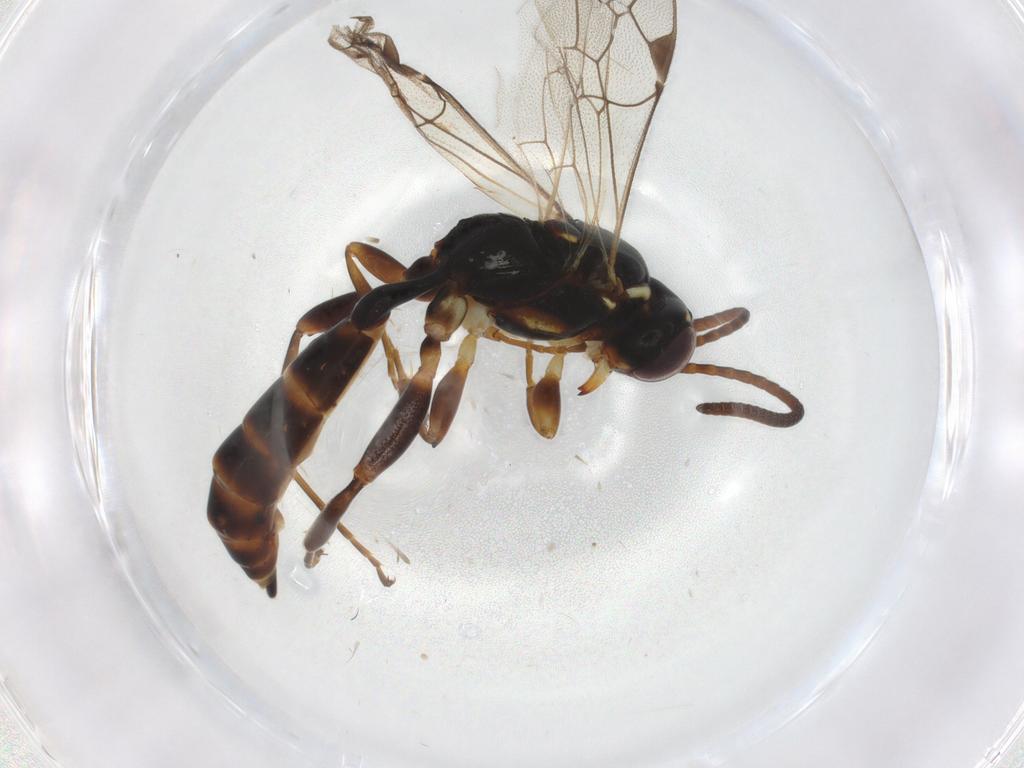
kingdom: Animalia
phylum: Arthropoda
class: Insecta
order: Hymenoptera
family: Ichneumonidae
